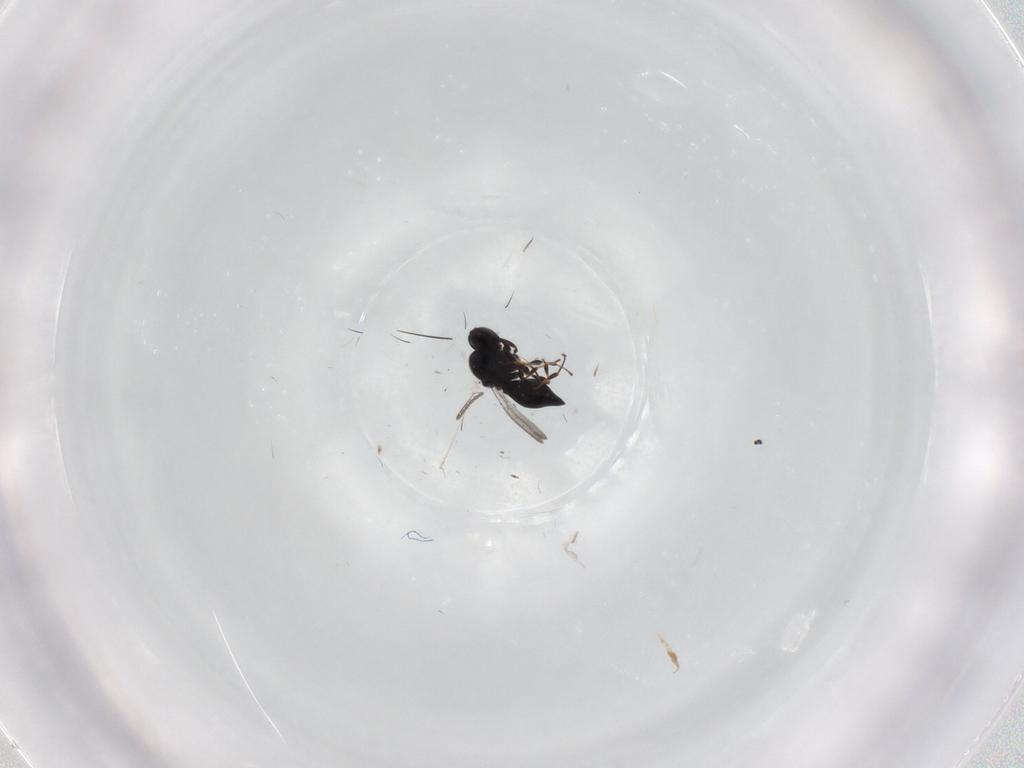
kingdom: Animalia
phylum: Arthropoda
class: Insecta
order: Hymenoptera
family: Platygastridae
